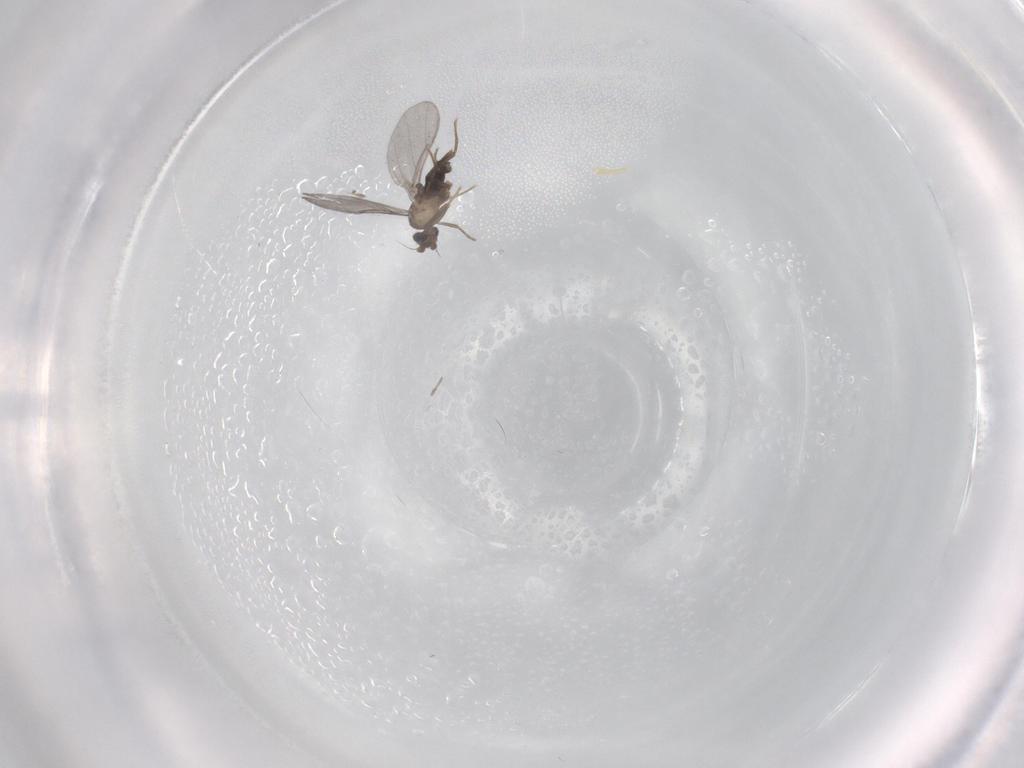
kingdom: Animalia
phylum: Arthropoda
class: Insecta
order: Diptera
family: Phoridae
